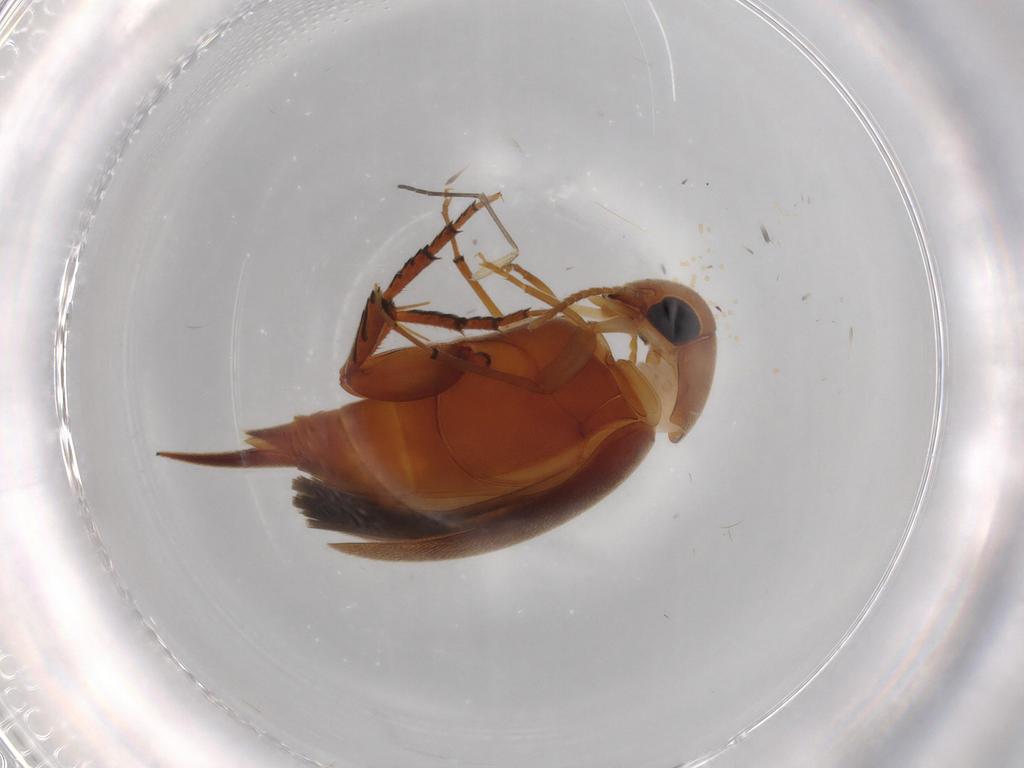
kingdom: Animalia
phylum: Arthropoda
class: Insecta
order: Coleoptera
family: Mordellidae
